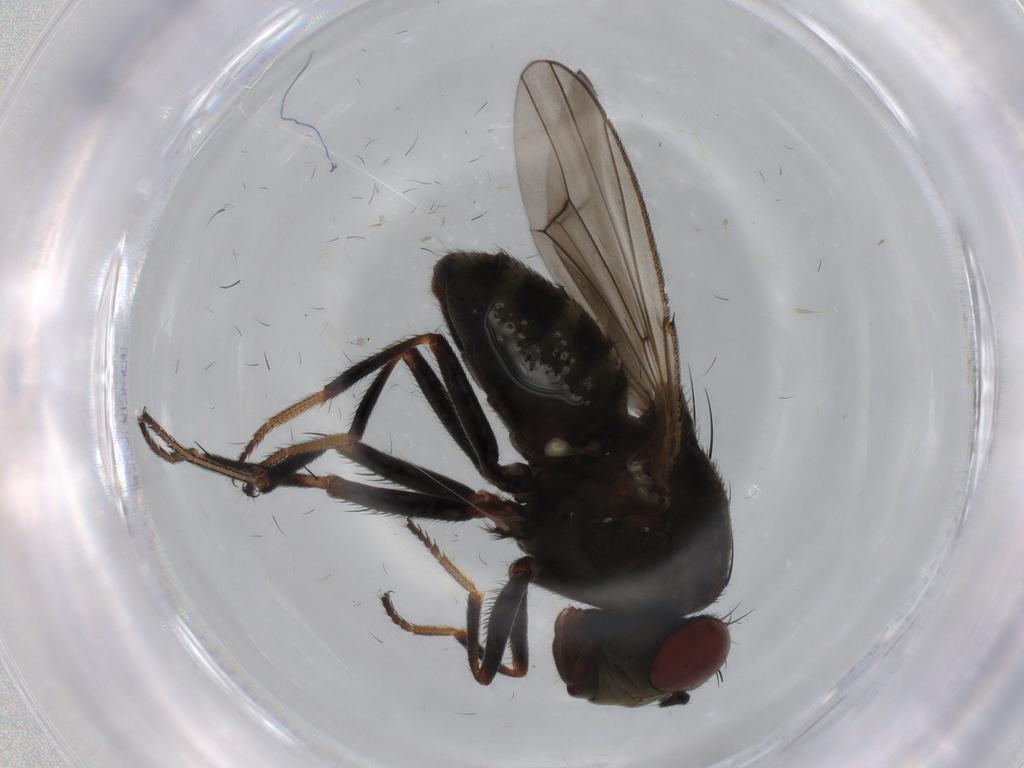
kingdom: Animalia
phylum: Arthropoda
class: Insecta
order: Diptera
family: Ephydridae
